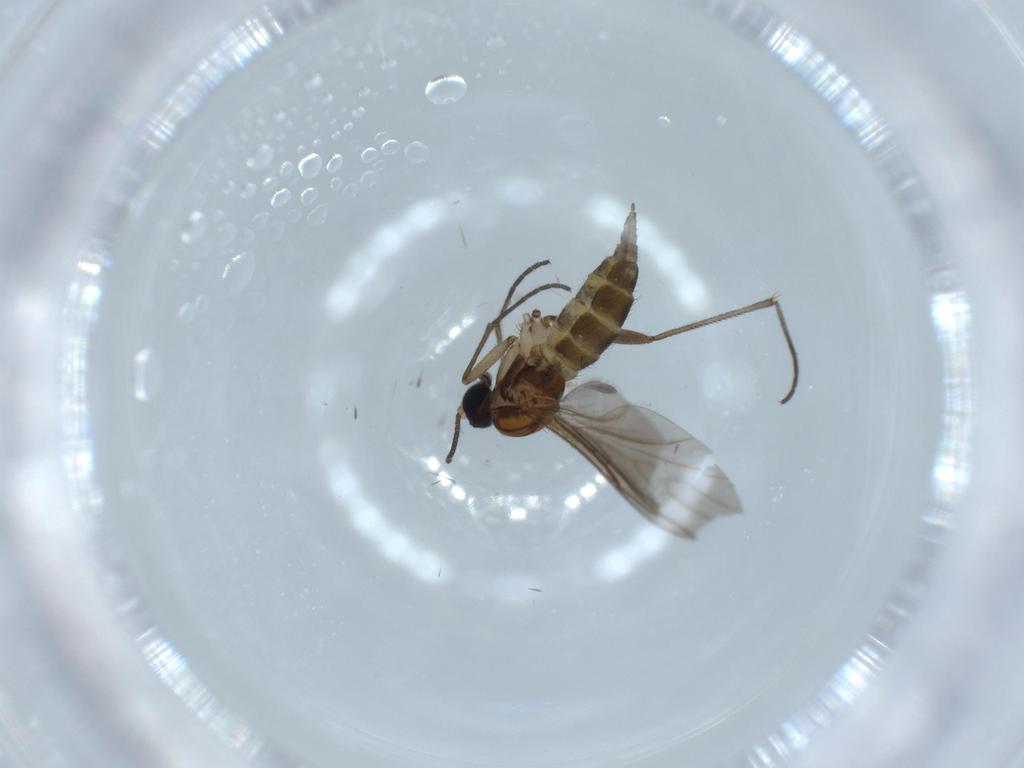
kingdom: Animalia
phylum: Arthropoda
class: Insecta
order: Diptera
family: Sciaridae
